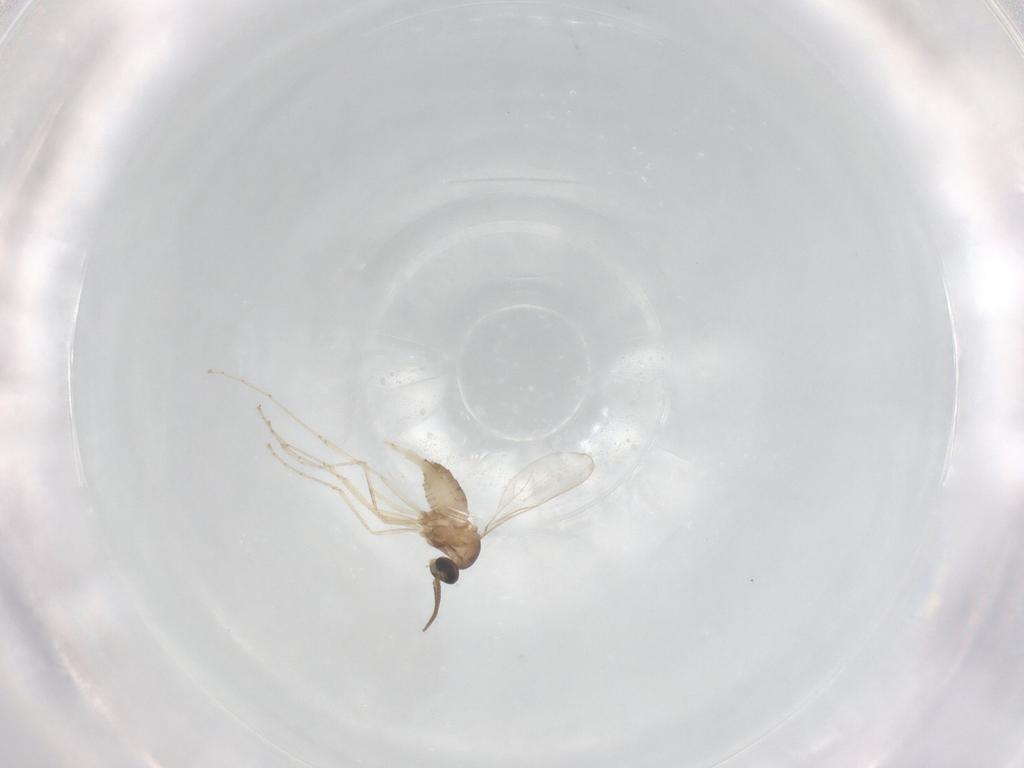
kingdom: Animalia
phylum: Arthropoda
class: Insecta
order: Diptera
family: Cecidomyiidae
